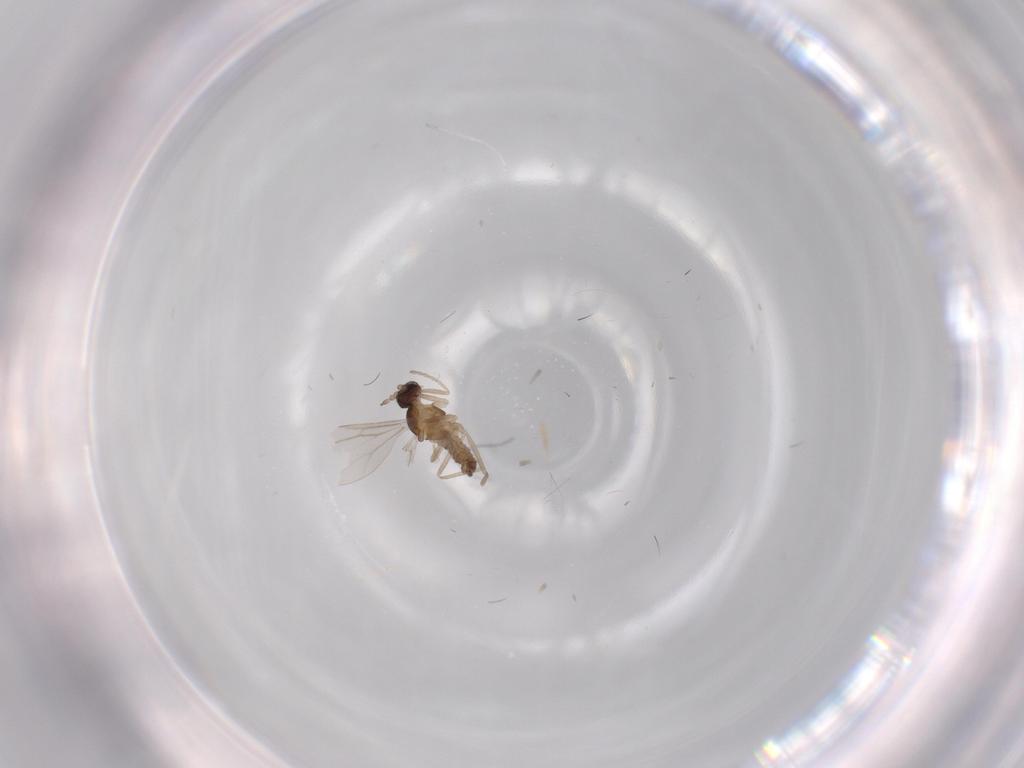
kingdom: Animalia
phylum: Arthropoda
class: Insecta
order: Diptera
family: Cecidomyiidae
